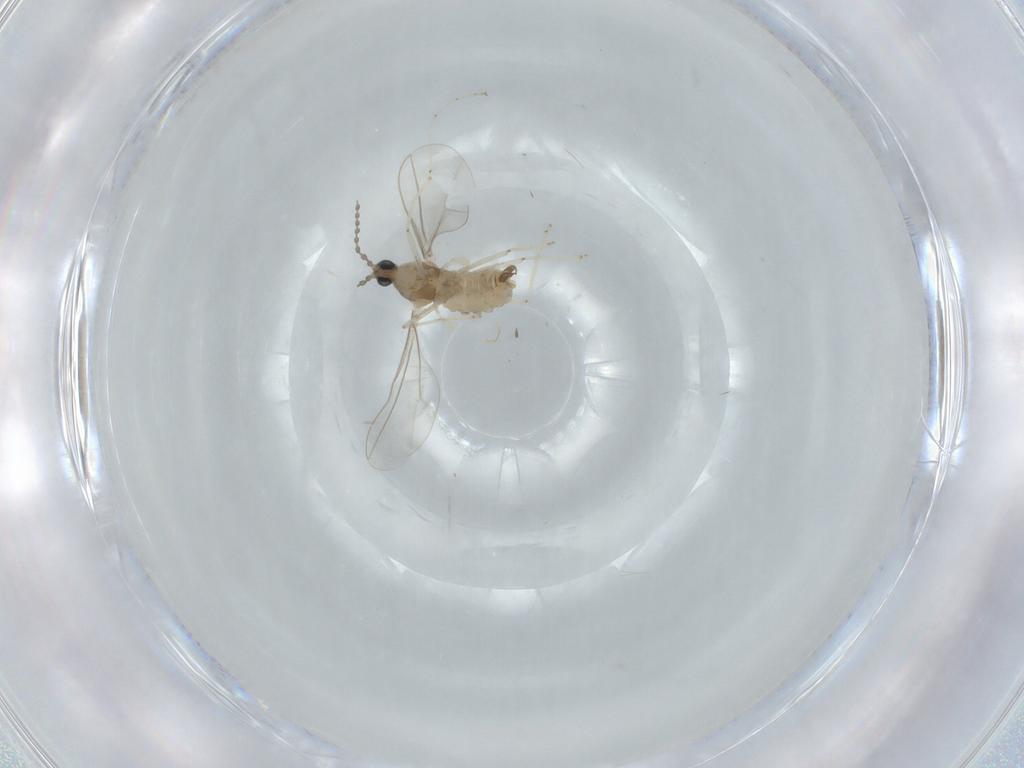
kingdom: Animalia
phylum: Arthropoda
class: Insecta
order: Diptera
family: Cecidomyiidae
